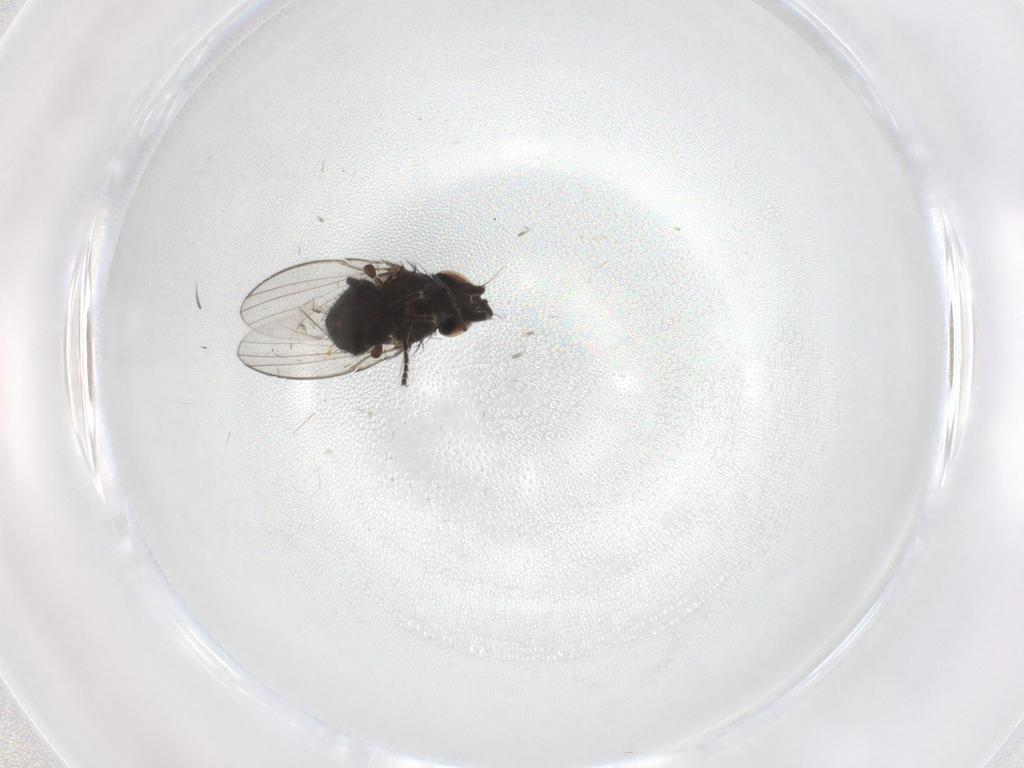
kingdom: Animalia
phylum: Arthropoda
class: Insecta
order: Diptera
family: Milichiidae
